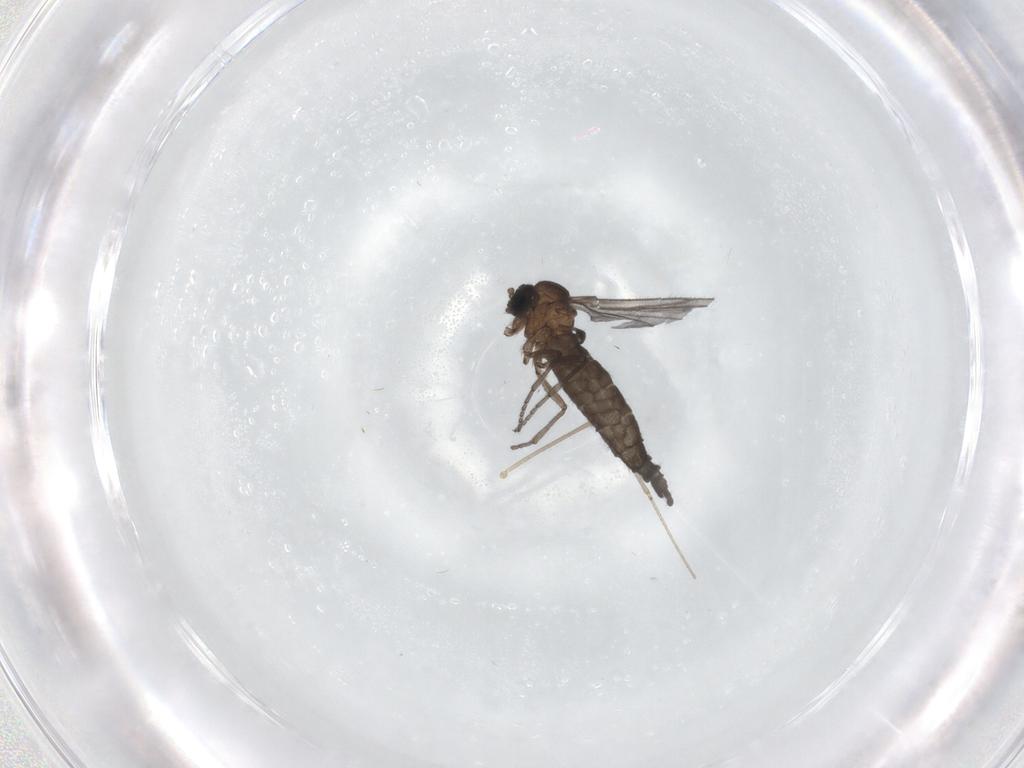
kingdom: Animalia
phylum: Arthropoda
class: Insecta
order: Diptera
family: Sciaridae
